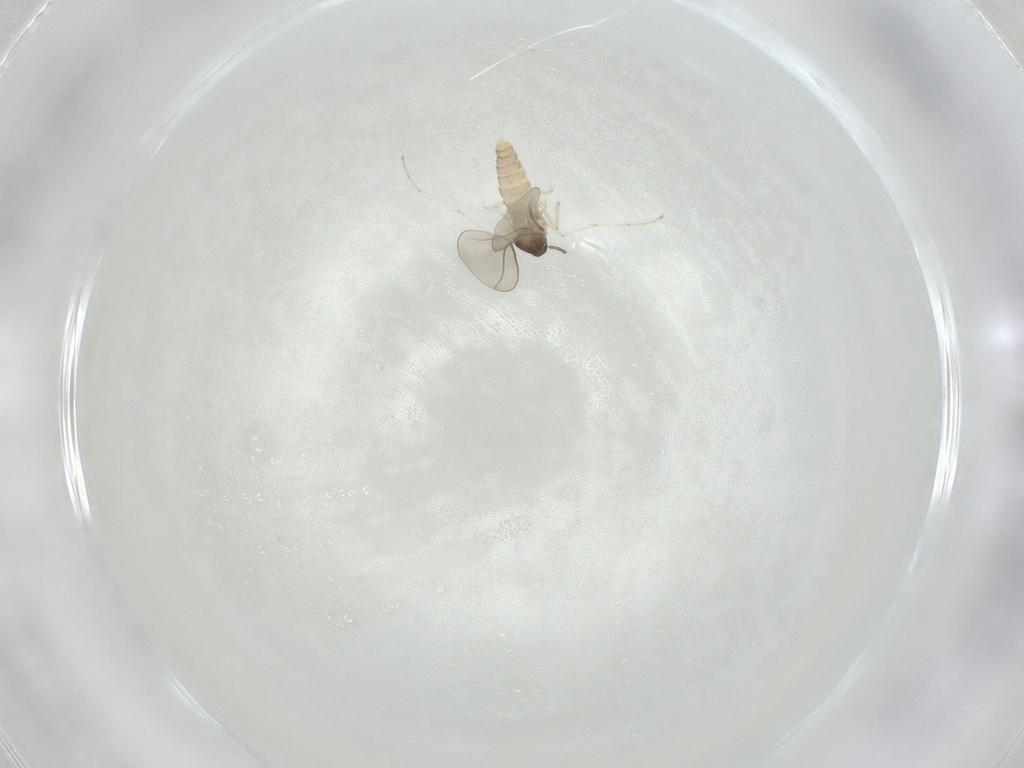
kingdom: Animalia
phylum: Arthropoda
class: Insecta
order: Diptera
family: Cecidomyiidae
